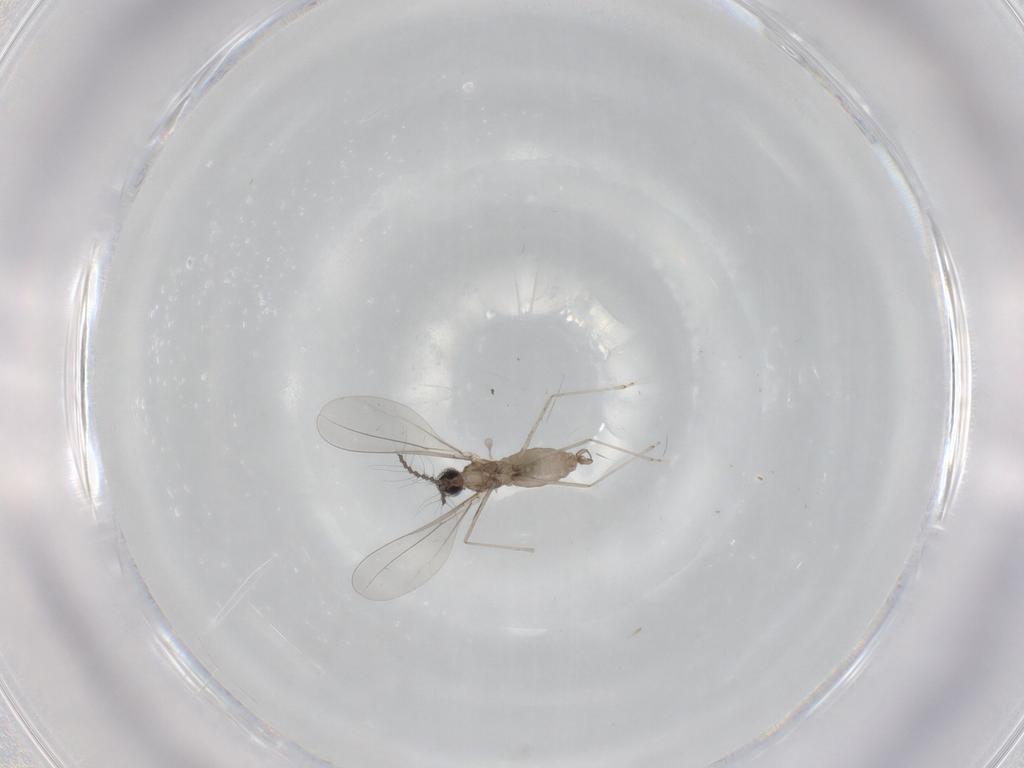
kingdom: Animalia
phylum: Arthropoda
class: Insecta
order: Diptera
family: Cecidomyiidae
